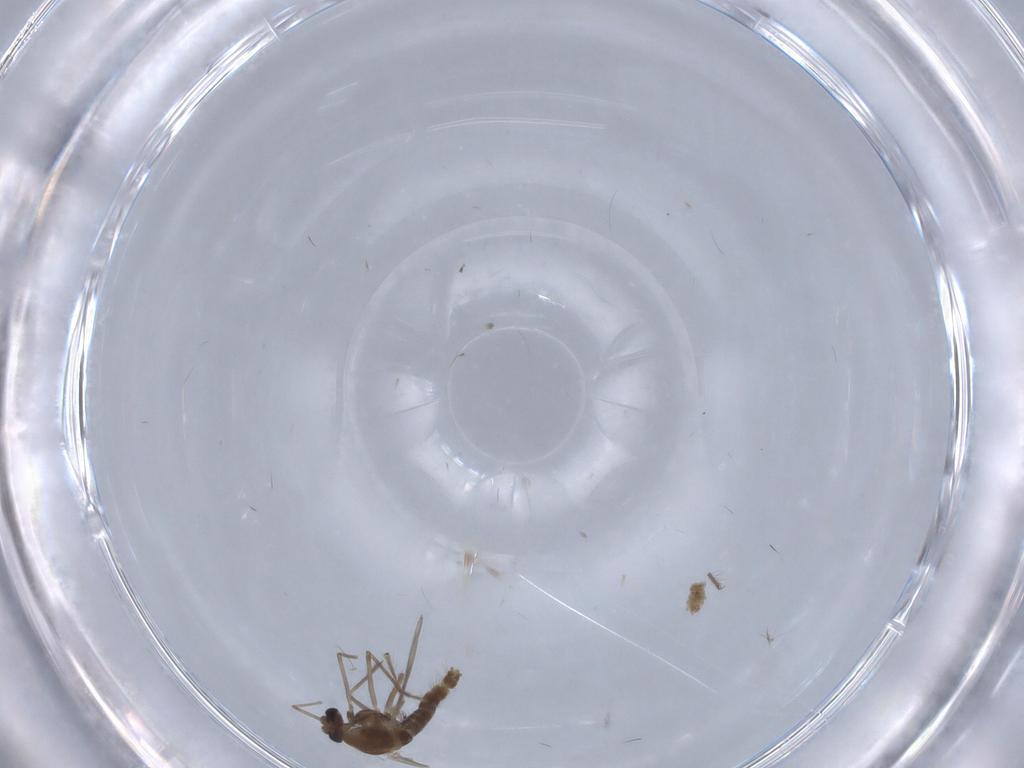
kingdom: Animalia
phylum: Arthropoda
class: Insecta
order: Diptera
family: Chironomidae
